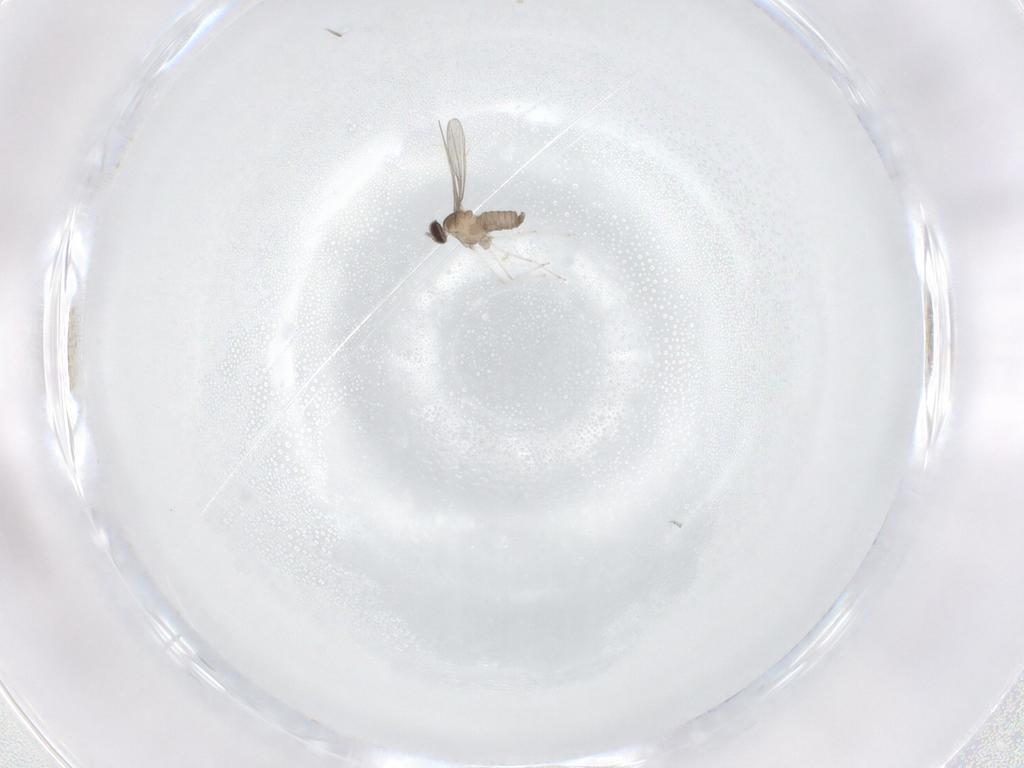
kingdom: Animalia
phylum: Arthropoda
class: Insecta
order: Diptera
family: Cecidomyiidae
